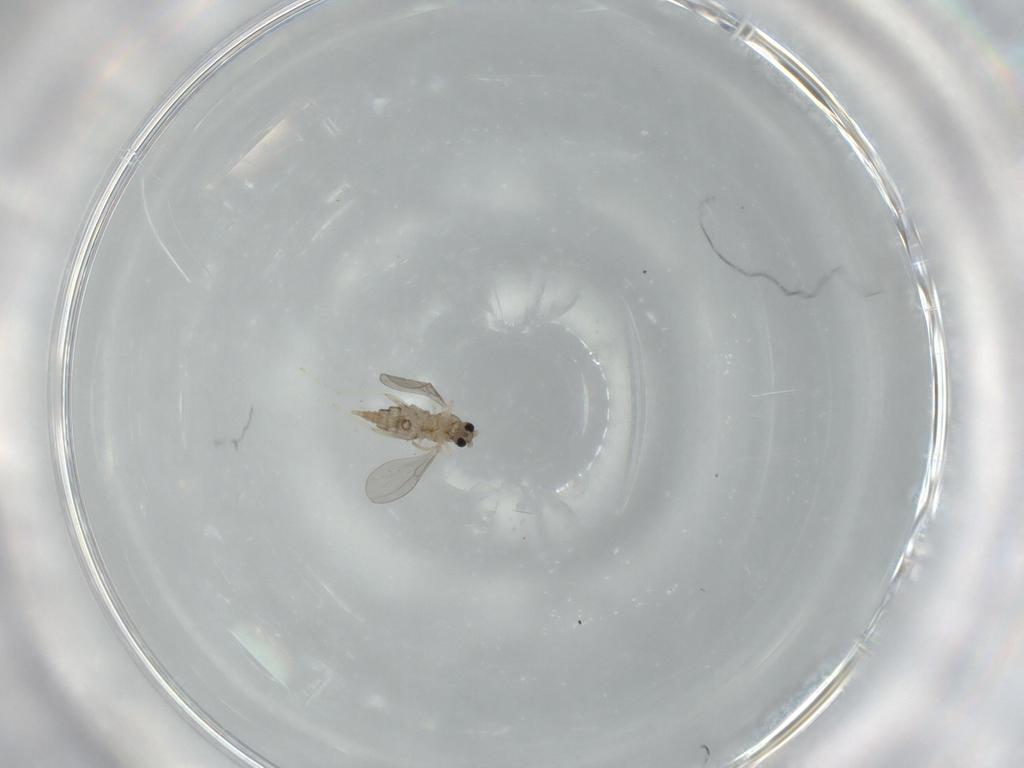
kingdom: Animalia
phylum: Arthropoda
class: Insecta
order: Diptera
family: Cecidomyiidae
